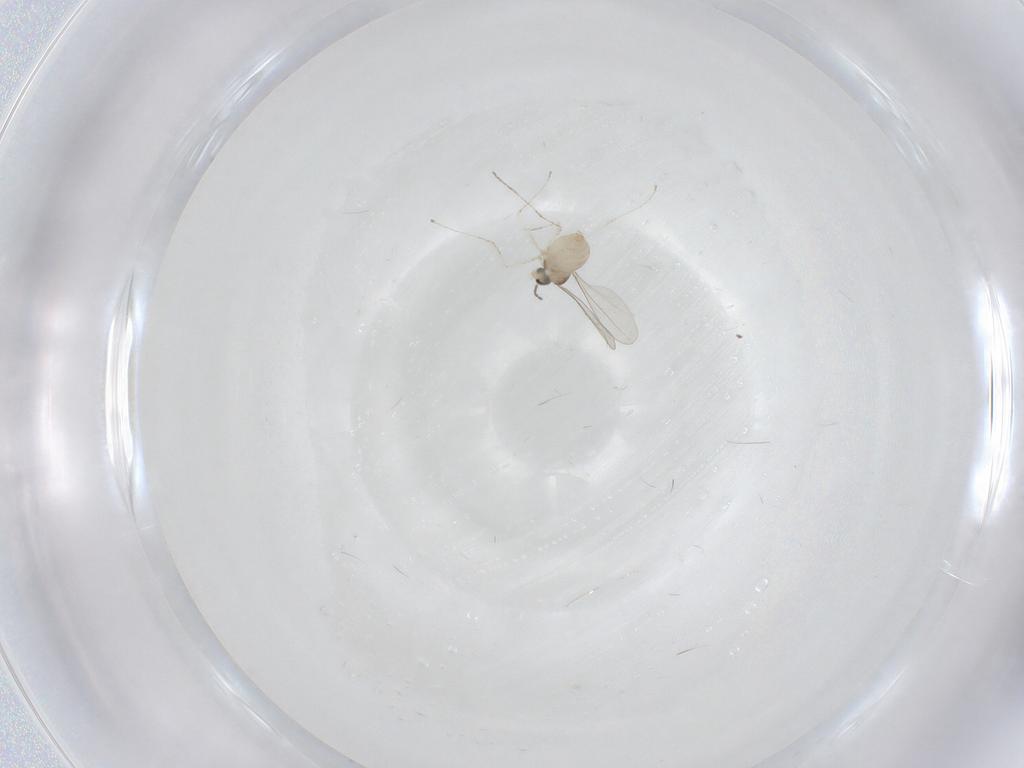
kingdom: Animalia
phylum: Arthropoda
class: Insecta
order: Diptera
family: Cecidomyiidae
